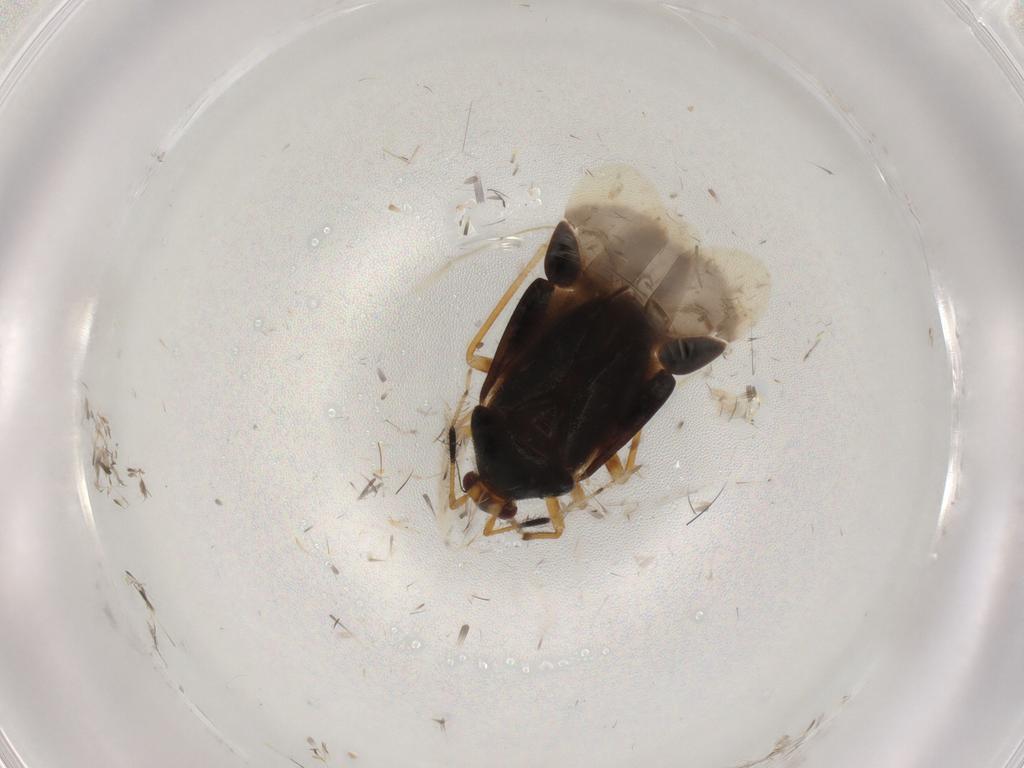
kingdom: Animalia
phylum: Arthropoda
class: Insecta
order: Hemiptera
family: Miridae
